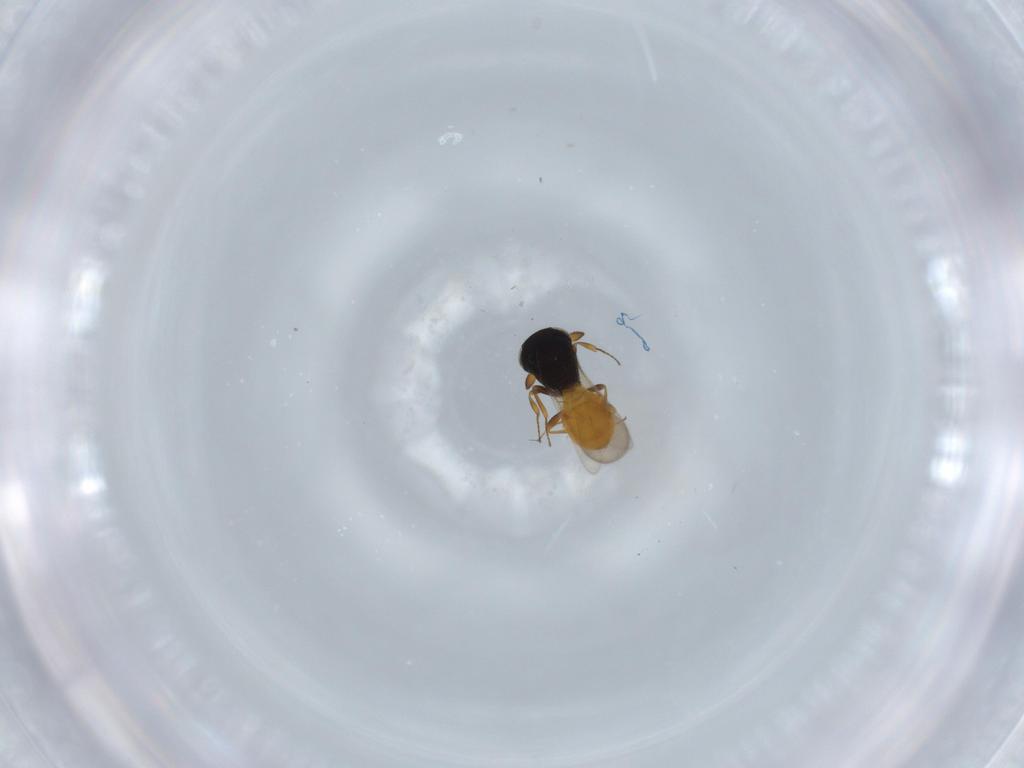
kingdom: Animalia
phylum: Arthropoda
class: Insecta
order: Hymenoptera
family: Scelionidae
